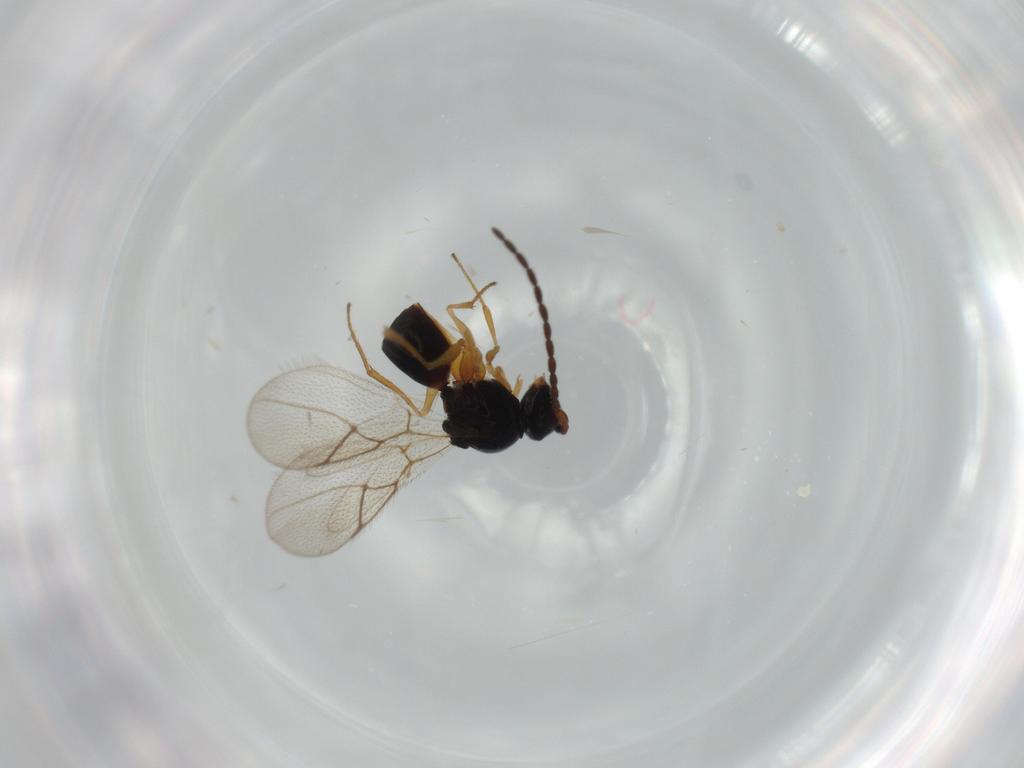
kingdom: Animalia
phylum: Arthropoda
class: Insecta
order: Hymenoptera
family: Figitidae
